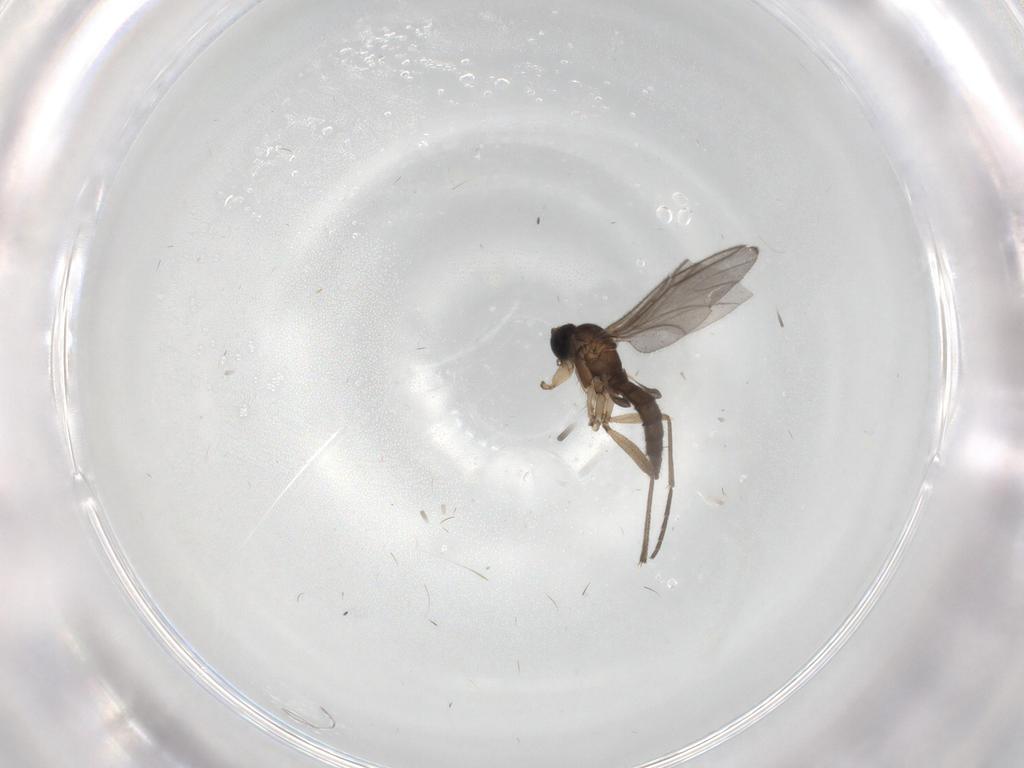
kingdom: Animalia
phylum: Arthropoda
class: Insecta
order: Diptera
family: Sciaridae
